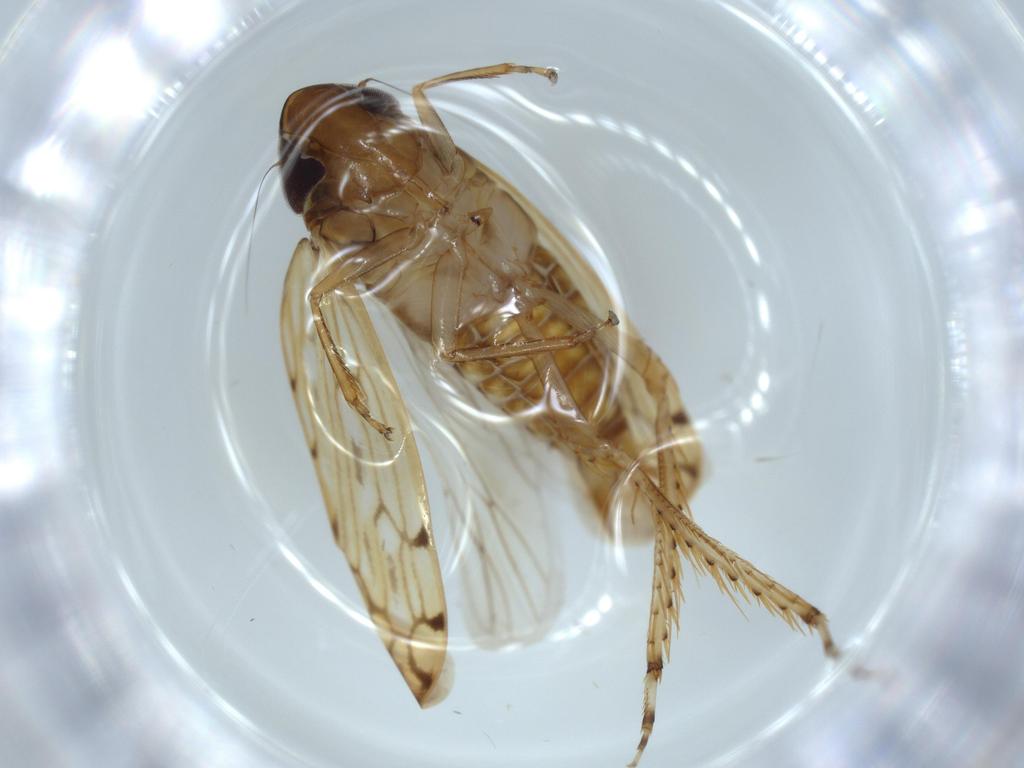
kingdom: Animalia
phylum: Arthropoda
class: Insecta
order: Hemiptera
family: Cicadellidae
